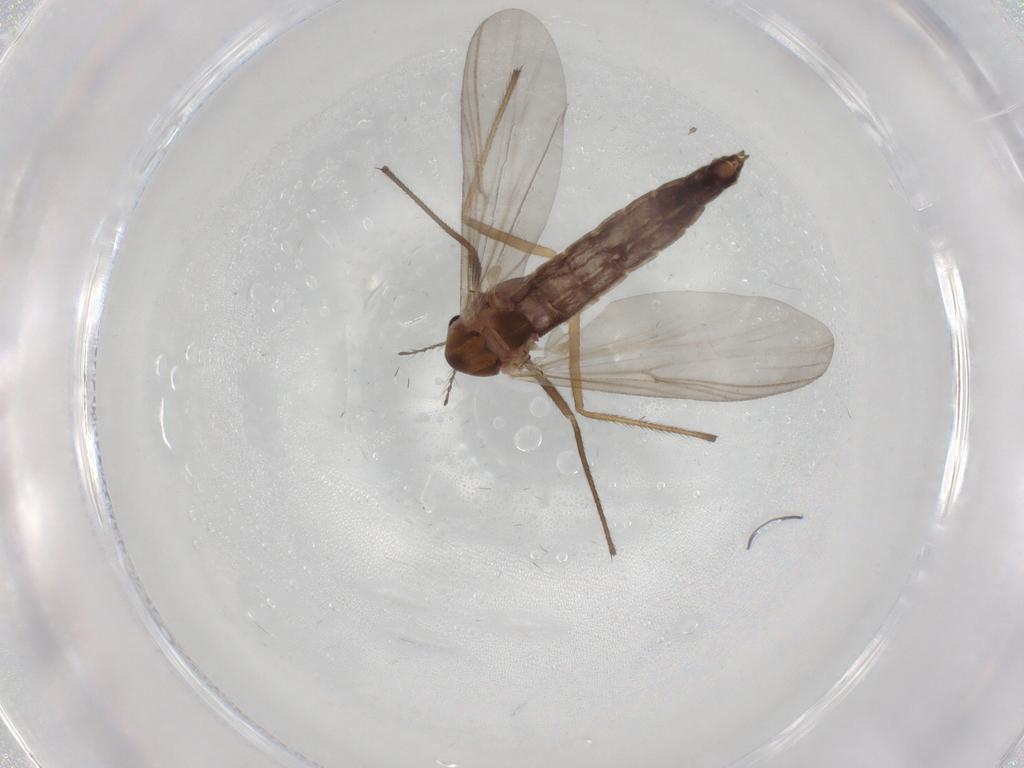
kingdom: Animalia
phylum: Arthropoda
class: Insecta
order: Diptera
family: Chironomidae
